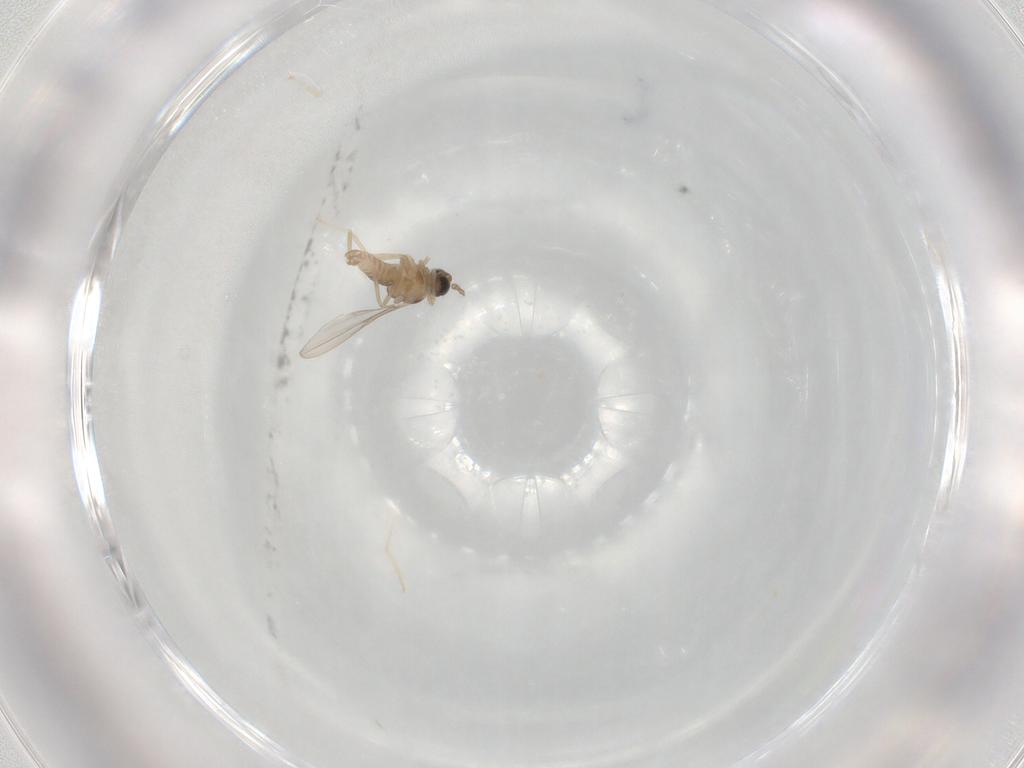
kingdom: Animalia
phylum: Arthropoda
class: Insecta
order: Diptera
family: Cecidomyiidae
